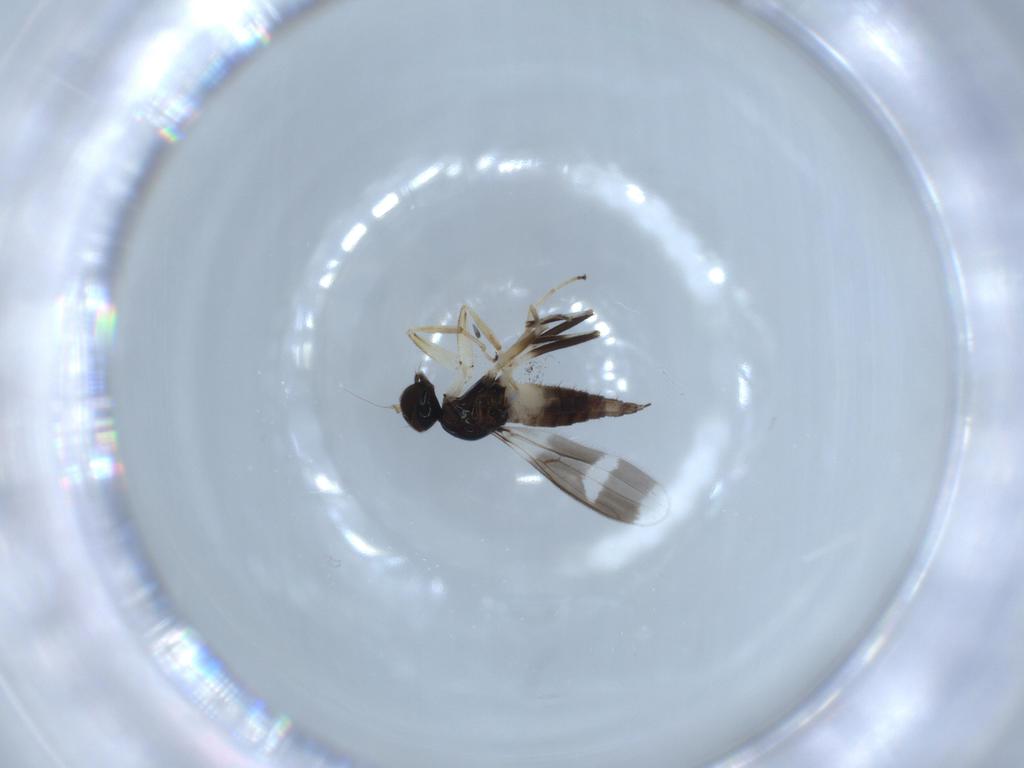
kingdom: Animalia
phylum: Arthropoda
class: Insecta
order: Diptera
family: Hybotidae
